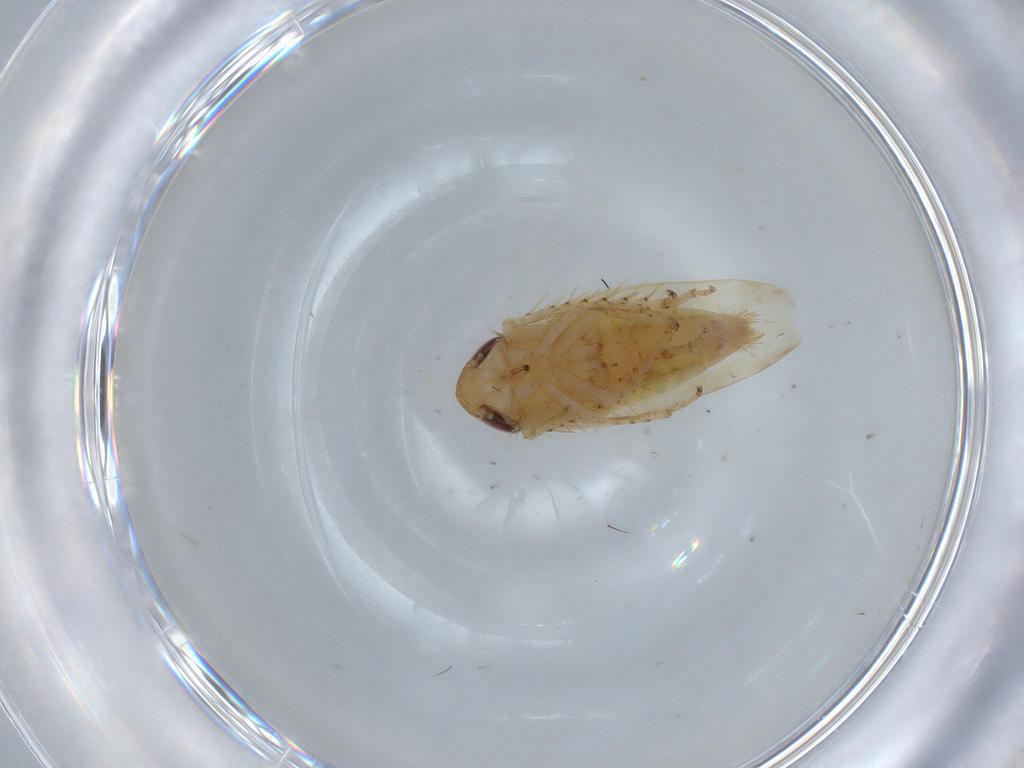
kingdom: Animalia
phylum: Arthropoda
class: Insecta
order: Hemiptera
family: Cicadellidae
